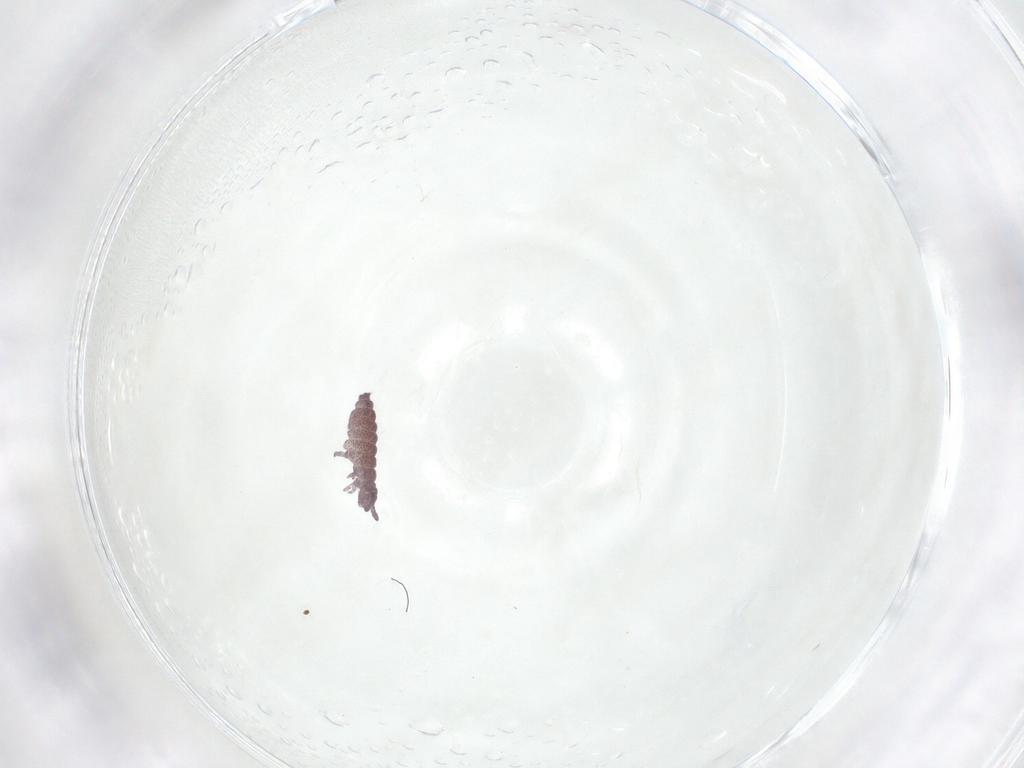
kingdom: Animalia
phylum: Arthropoda
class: Collembola
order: Poduromorpha
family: Hypogastruridae
